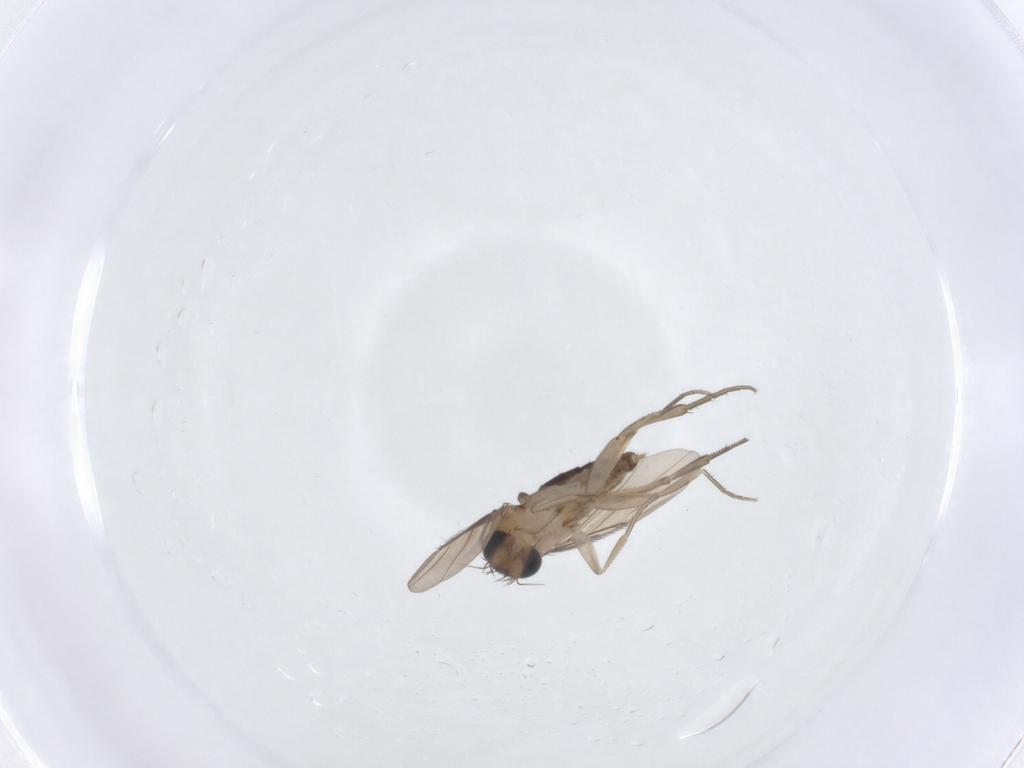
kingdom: Animalia
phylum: Arthropoda
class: Insecta
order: Diptera
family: Phoridae
